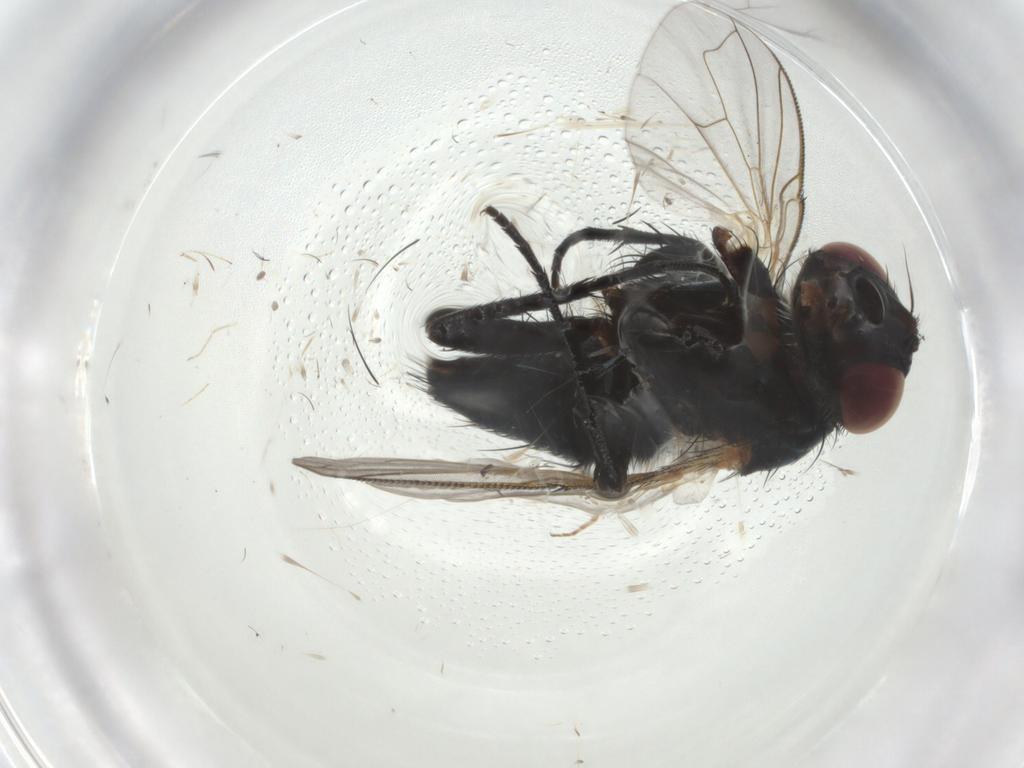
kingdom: Animalia
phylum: Arthropoda
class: Insecta
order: Diptera
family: Tachinidae
